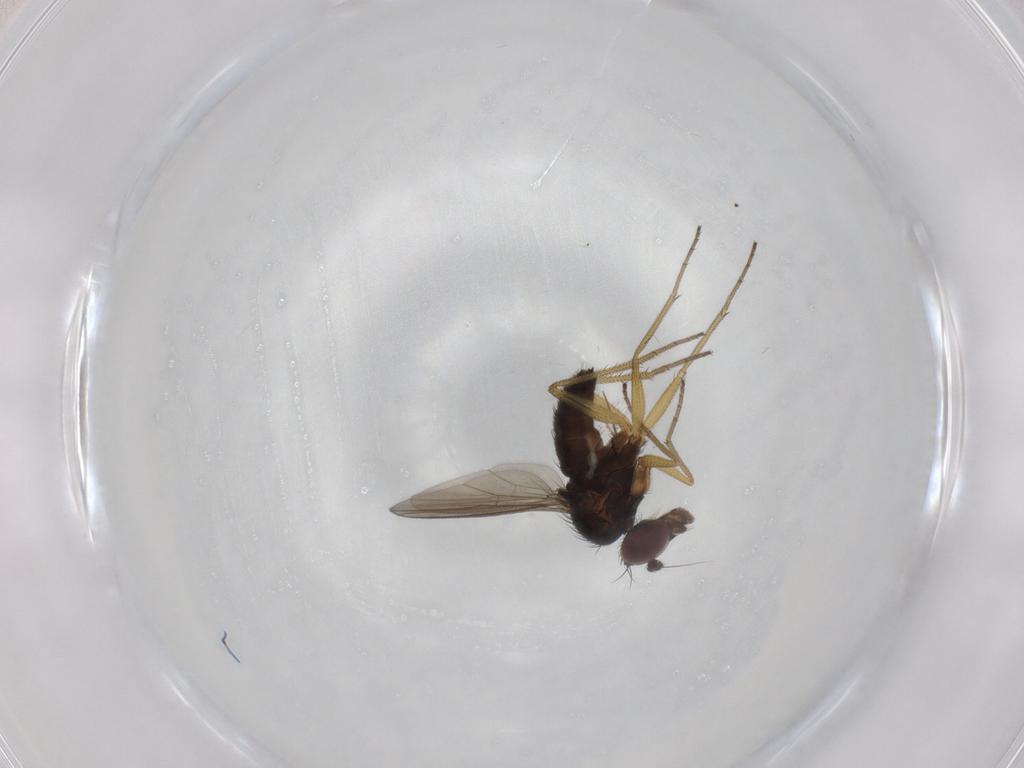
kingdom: Animalia
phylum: Arthropoda
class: Insecta
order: Diptera
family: Dolichopodidae
